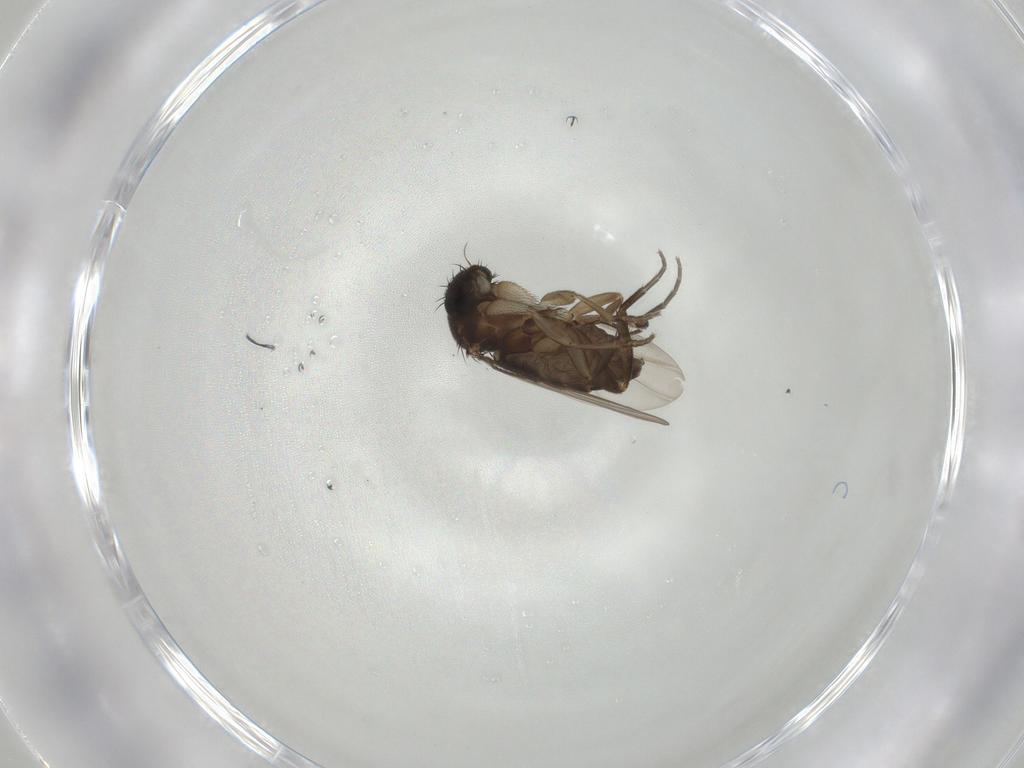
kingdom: Animalia
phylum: Arthropoda
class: Insecta
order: Diptera
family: Phoridae
